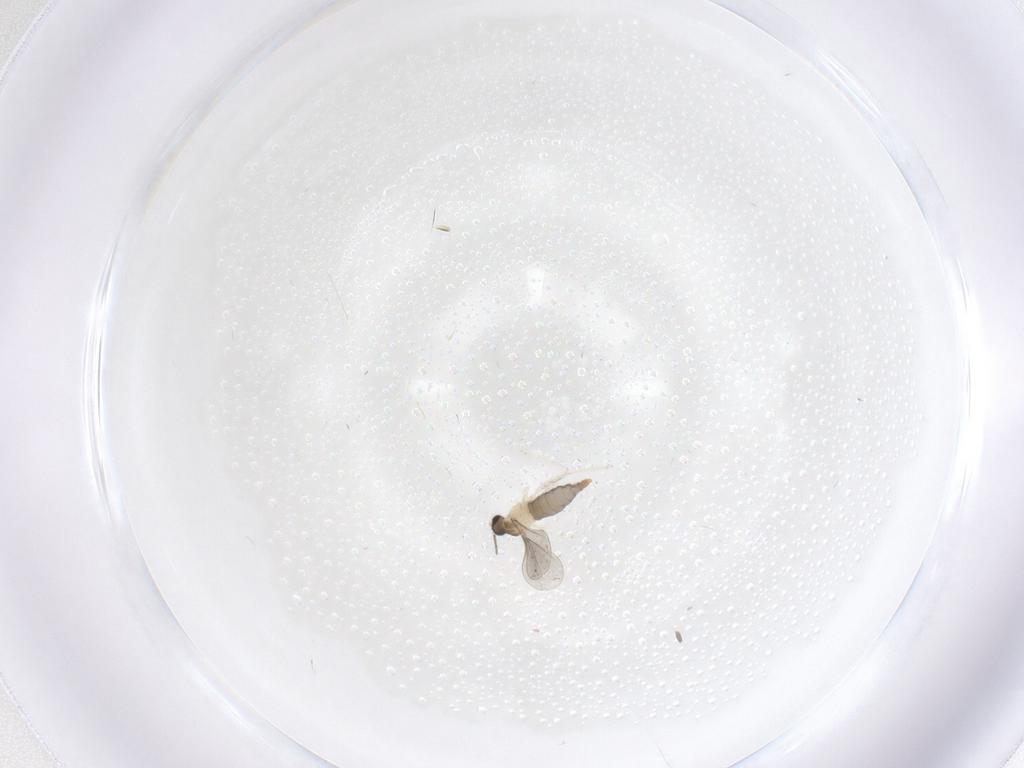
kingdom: Animalia
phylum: Arthropoda
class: Insecta
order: Diptera
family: Cecidomyiidae
